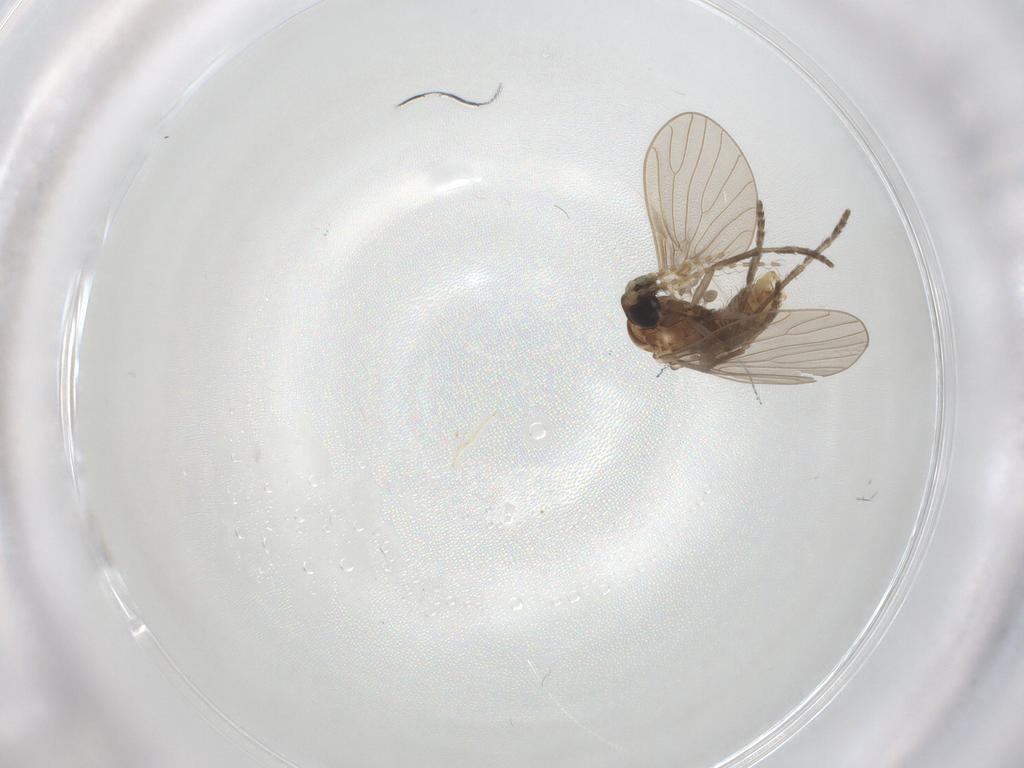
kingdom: Animalia
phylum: Arthropoda
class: Insecta
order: Diptera
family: Psychodidae
